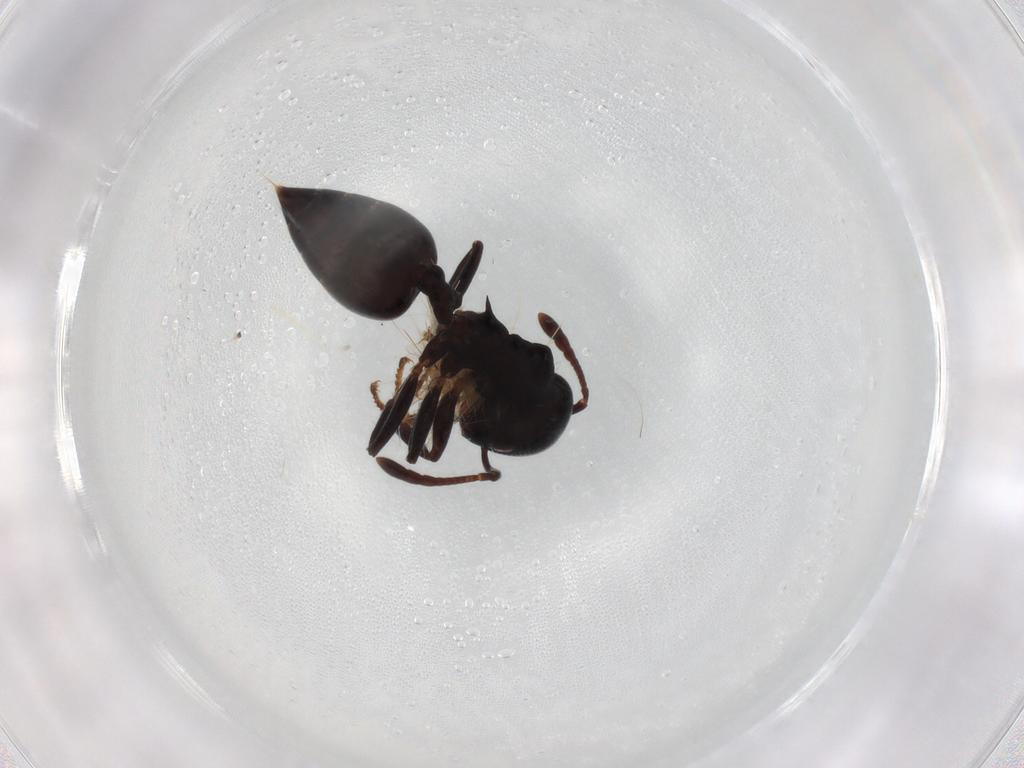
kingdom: Animalia
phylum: Arthropoda
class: Insecta
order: Hymenoptera
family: Formicidae
